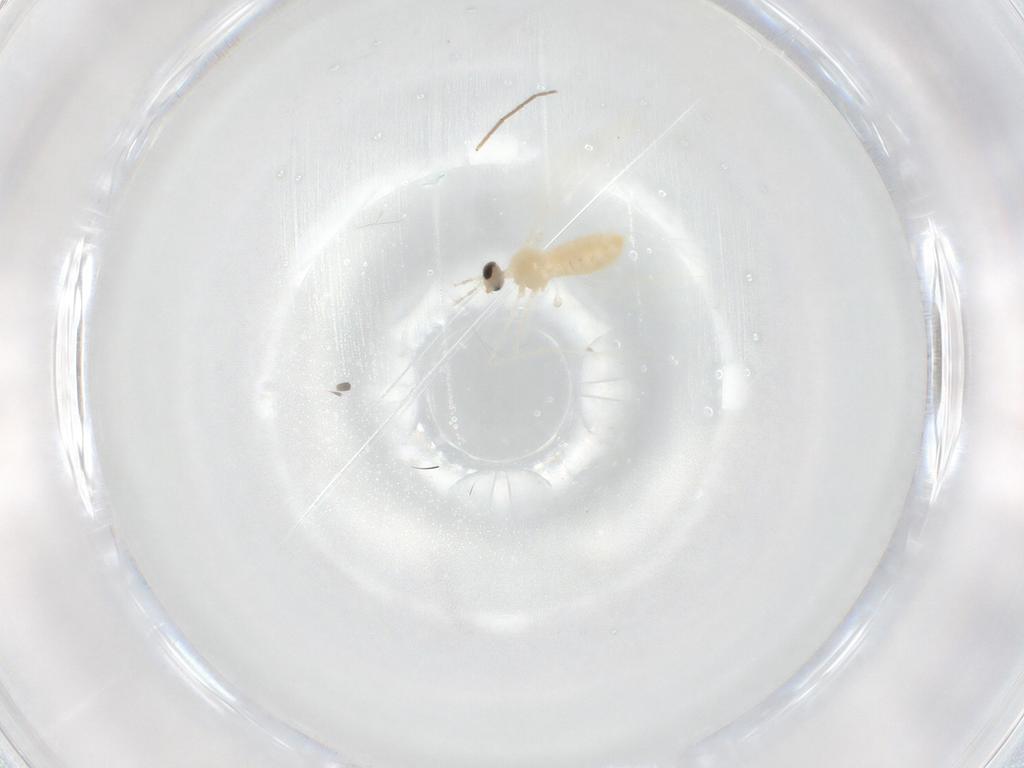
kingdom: Animalia
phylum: Arthropoda
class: Insecta
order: Diptera
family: Cecidomyiidae
